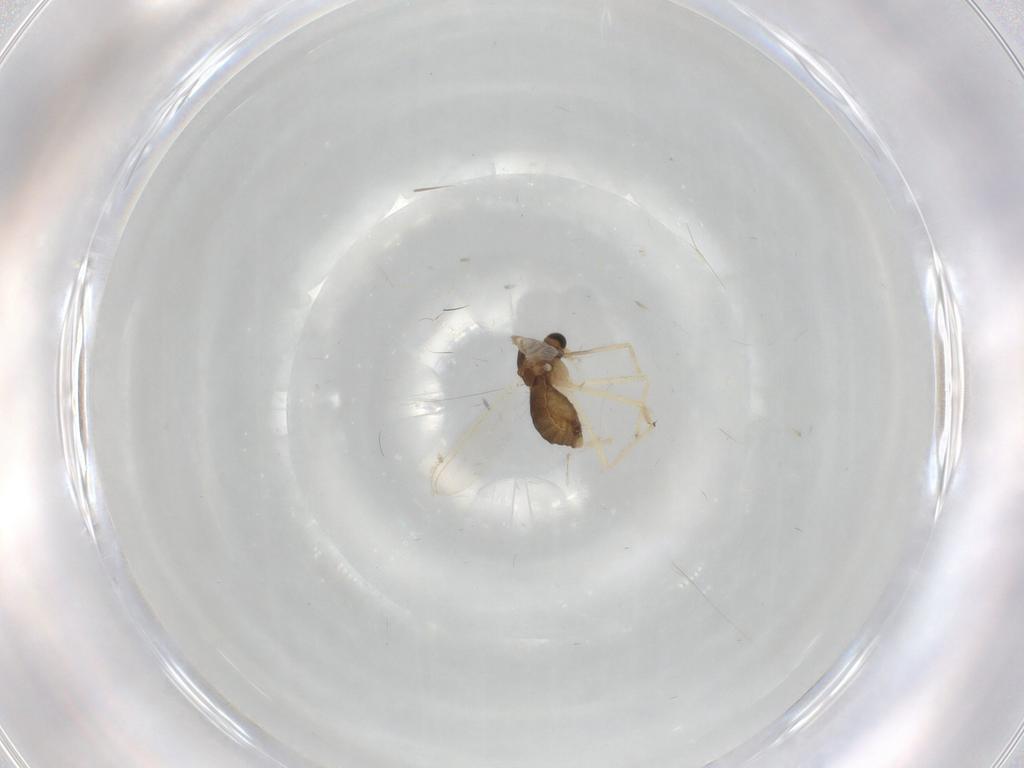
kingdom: Animalia
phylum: Arthropoda
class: Insecta
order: Diptera
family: Chironomidae
